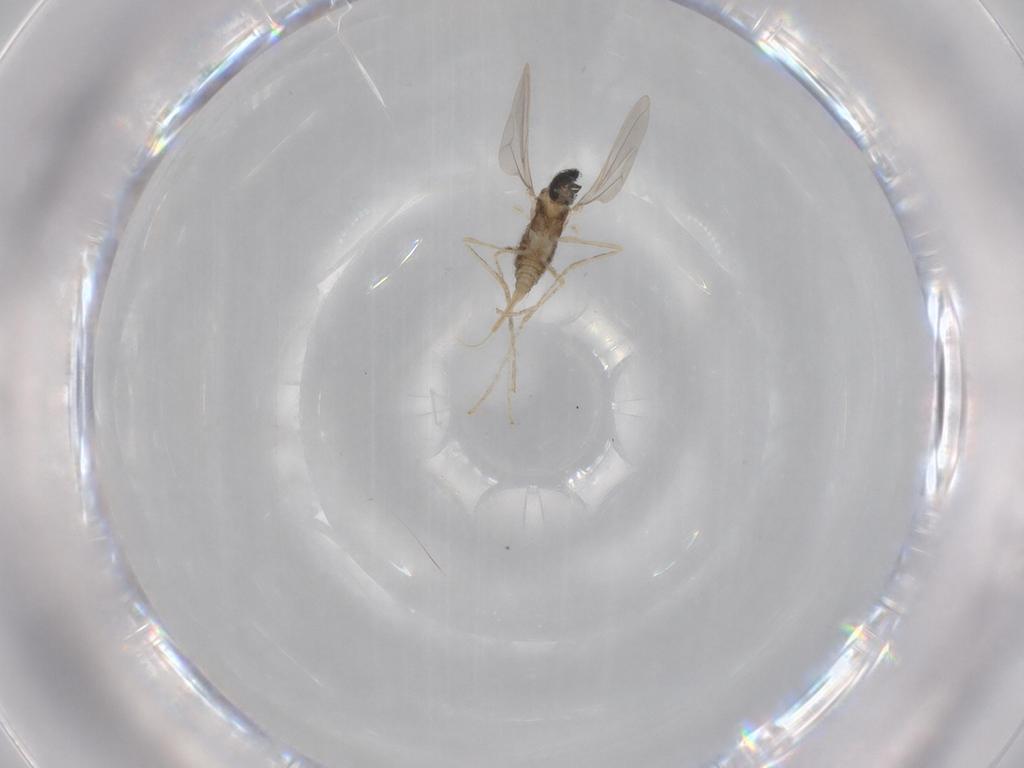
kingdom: Animalia
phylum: Arthropoda
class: Insecta
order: Diptera
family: Cecidomyiidae
